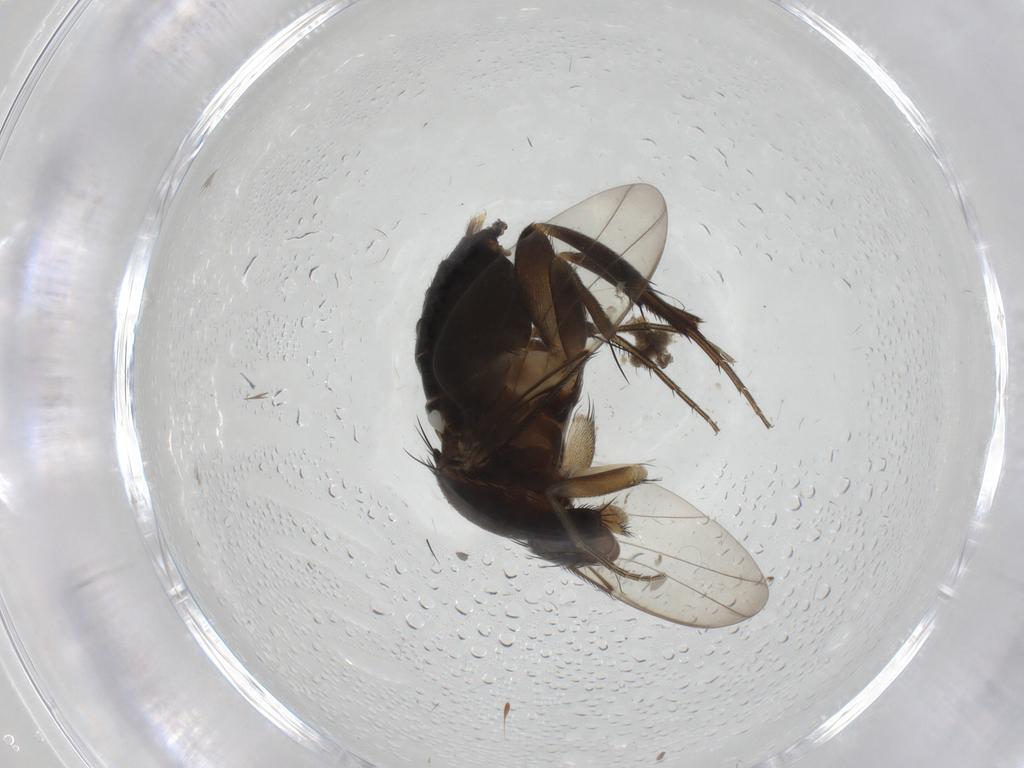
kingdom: Animalia
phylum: Arthropoda
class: Insecta
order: Diptera
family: Phoridae
